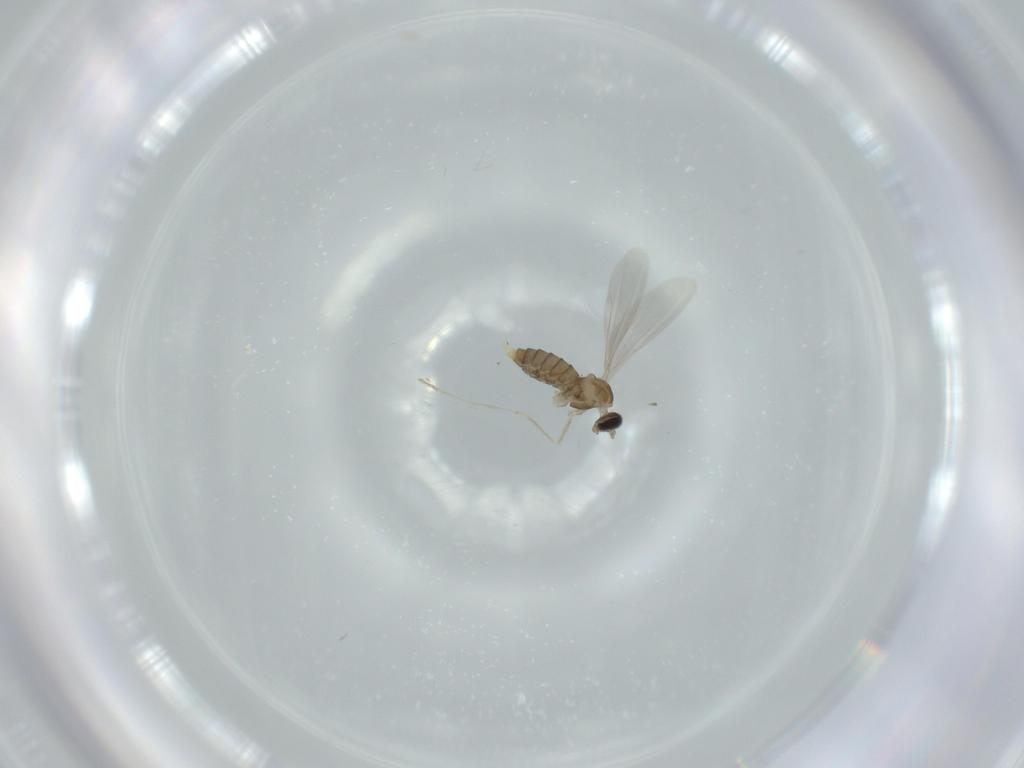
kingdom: Animalia
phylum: Arthropoda
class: Insecta
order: Diptera
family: Cecidomyiidae
